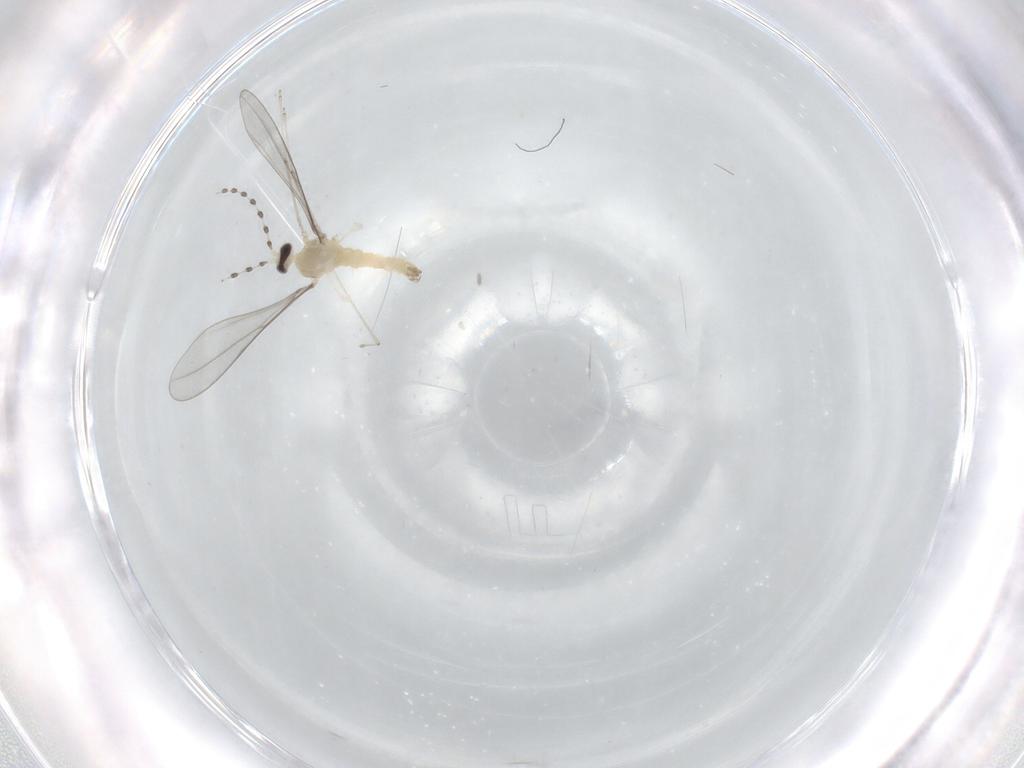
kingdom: Animalia
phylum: Arthropoda
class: Insecta
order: Diptera
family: Cecidomyiidae
